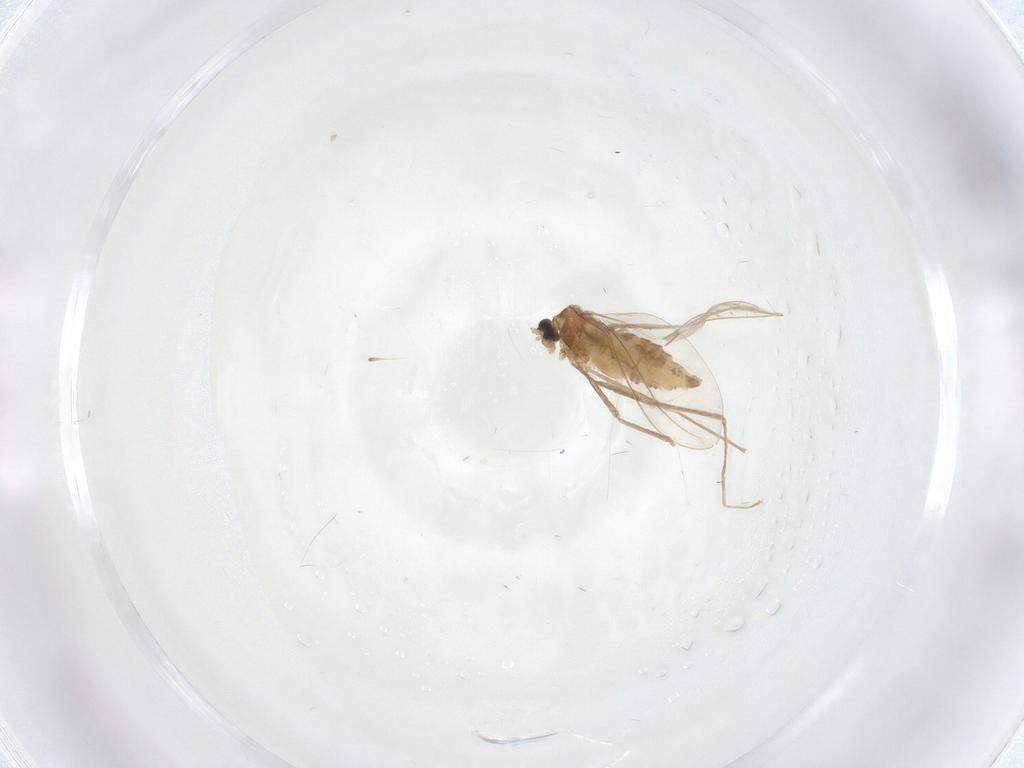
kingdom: Animalia
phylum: Arthropoda
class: Insecta
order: Diptera
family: Cecidomyiidae
